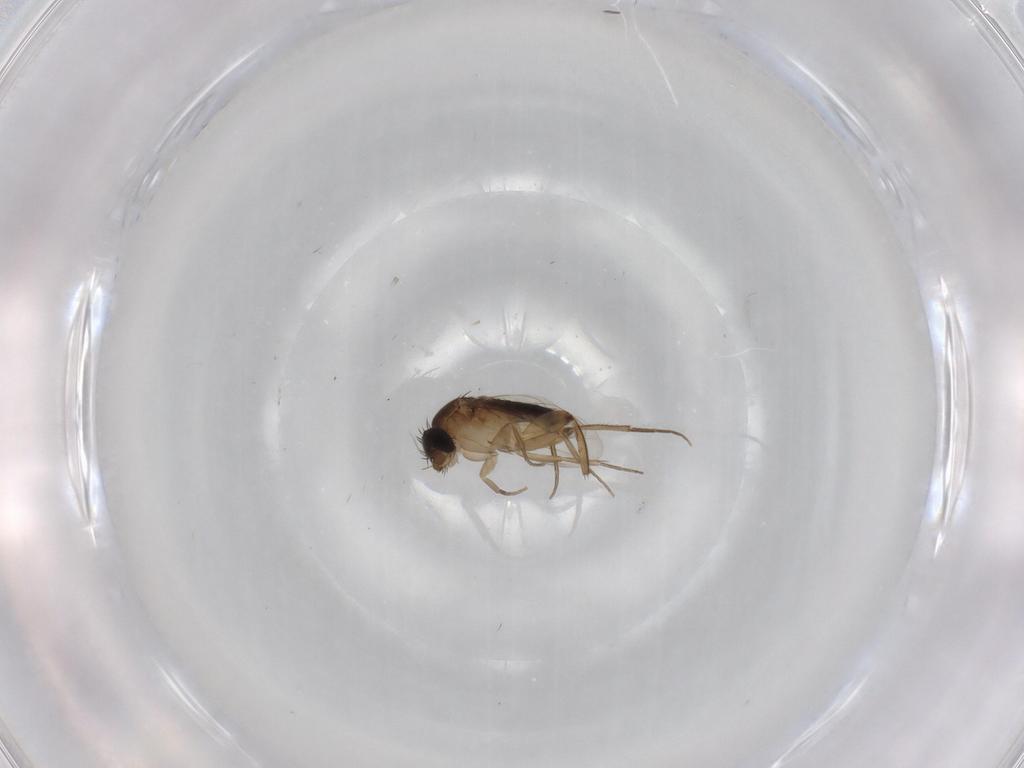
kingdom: Animalia
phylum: Arthropoda
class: Insecta
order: Diptera
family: Phoridae
